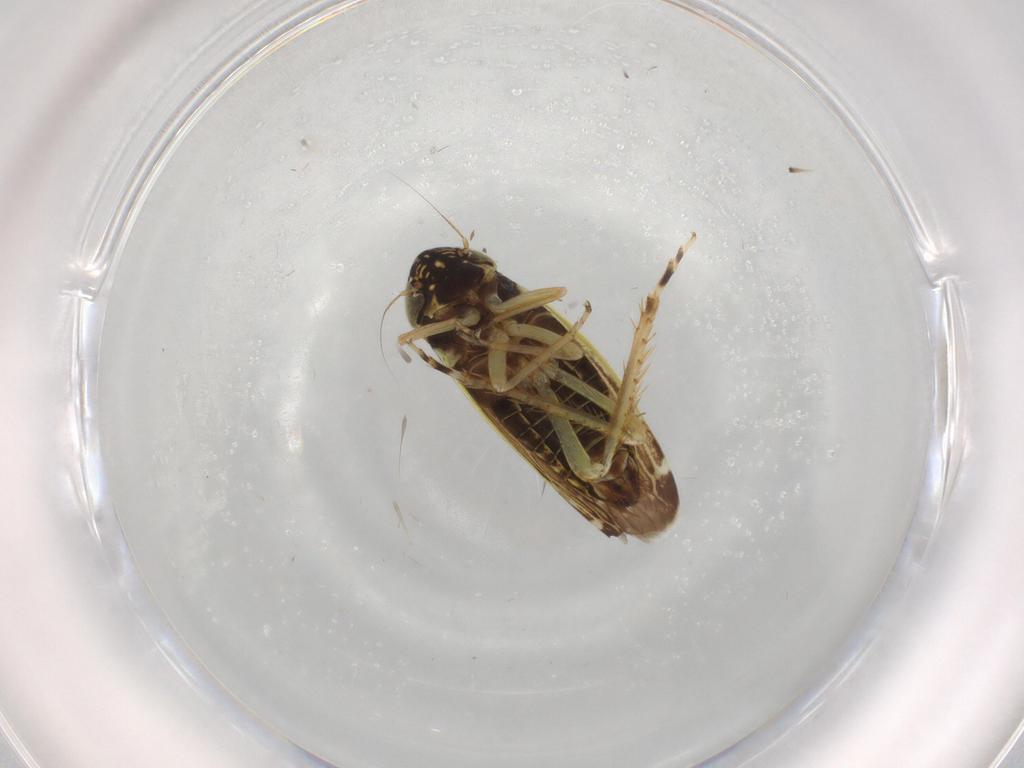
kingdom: Animalia
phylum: Arthropoda
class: Insecta
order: Hemiptera
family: Cicadellidae
